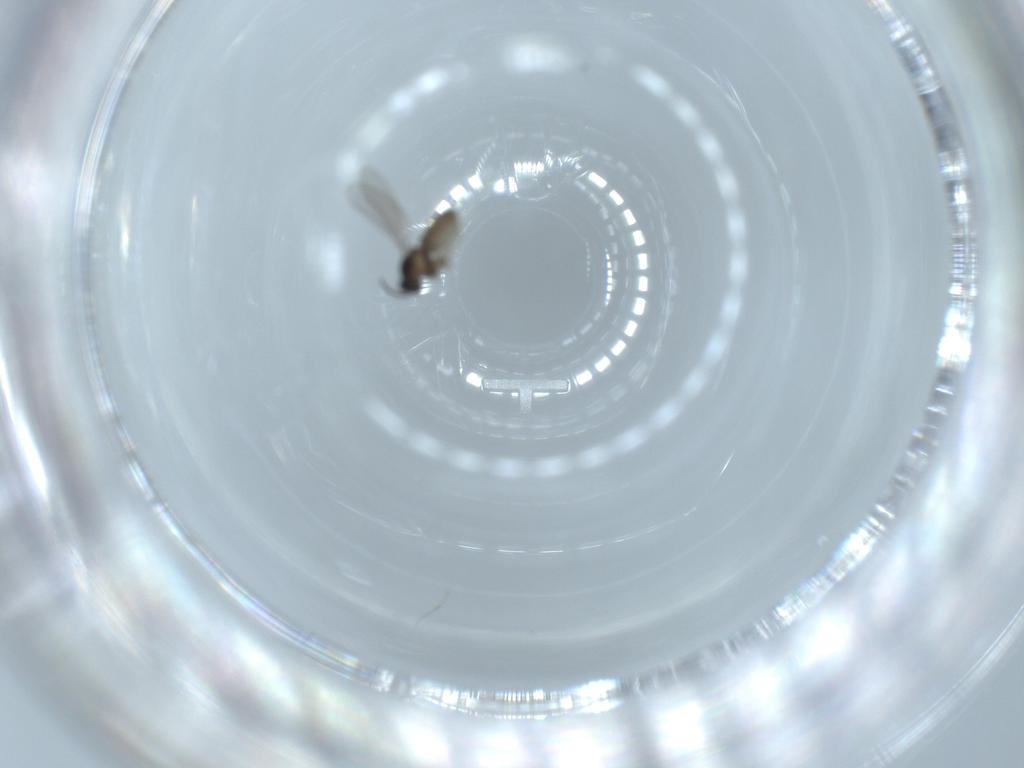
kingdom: Animalia
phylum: Arthropoda
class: Insecta
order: Diptera
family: Cecidomyiidae
